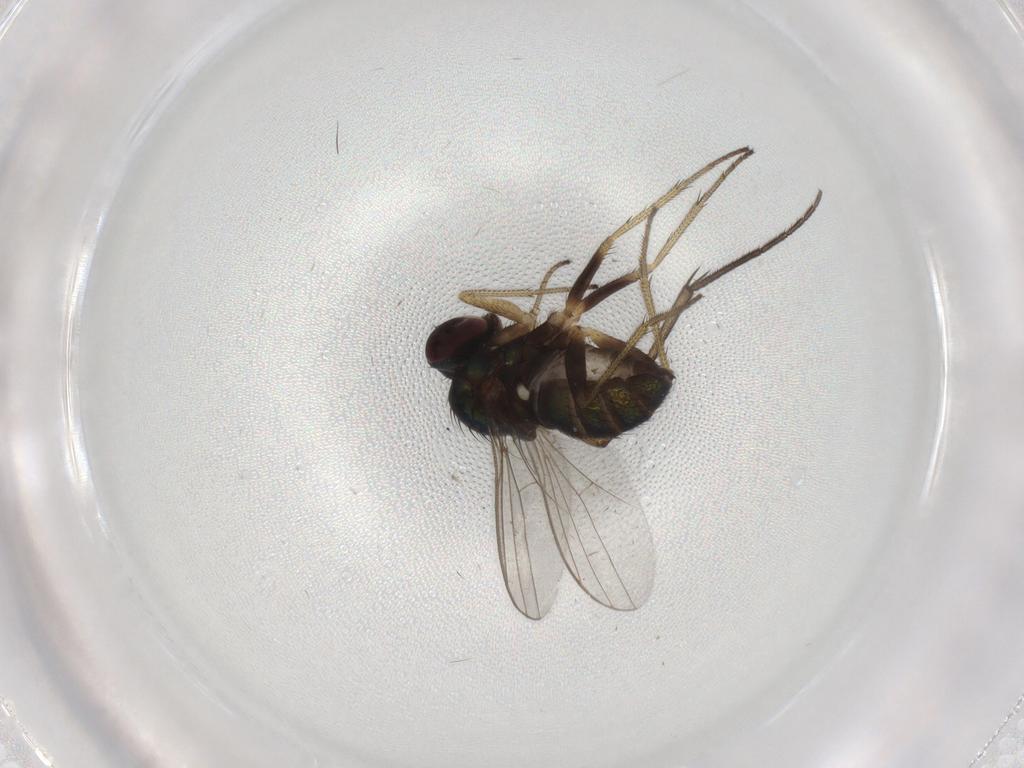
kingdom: Animalia
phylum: Arthropoda
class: Insecta
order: Diptera
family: Mycetophilidae
